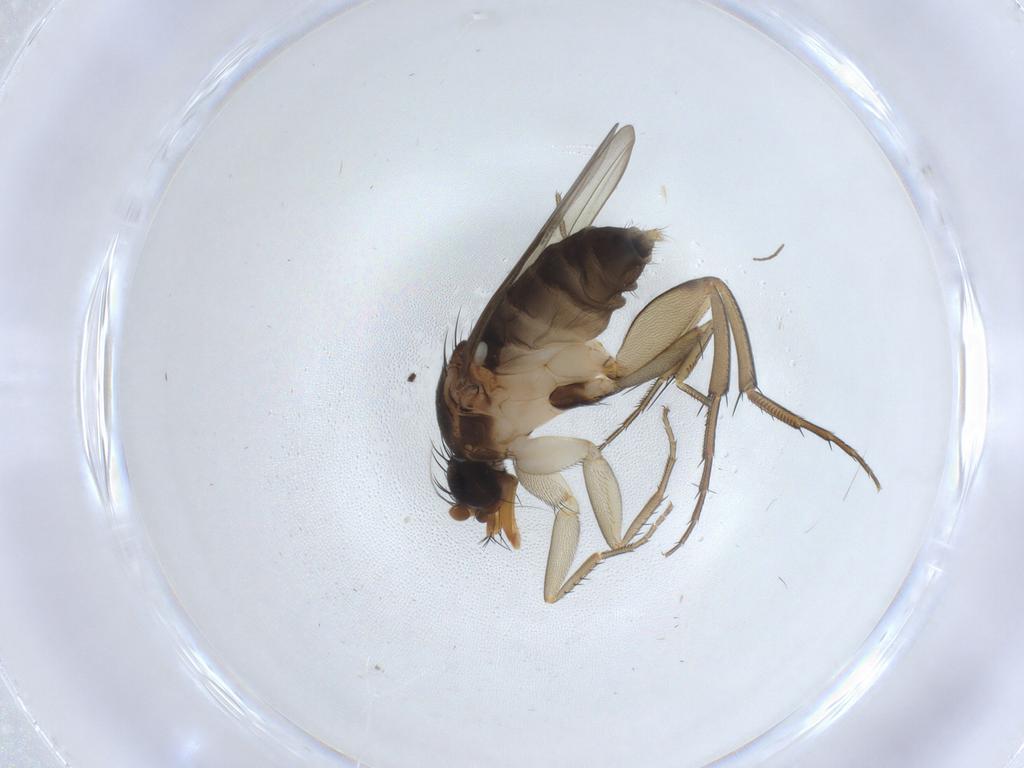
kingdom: Animalia
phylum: Arthropoda
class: Insecta
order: Diptera
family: Phoridae
